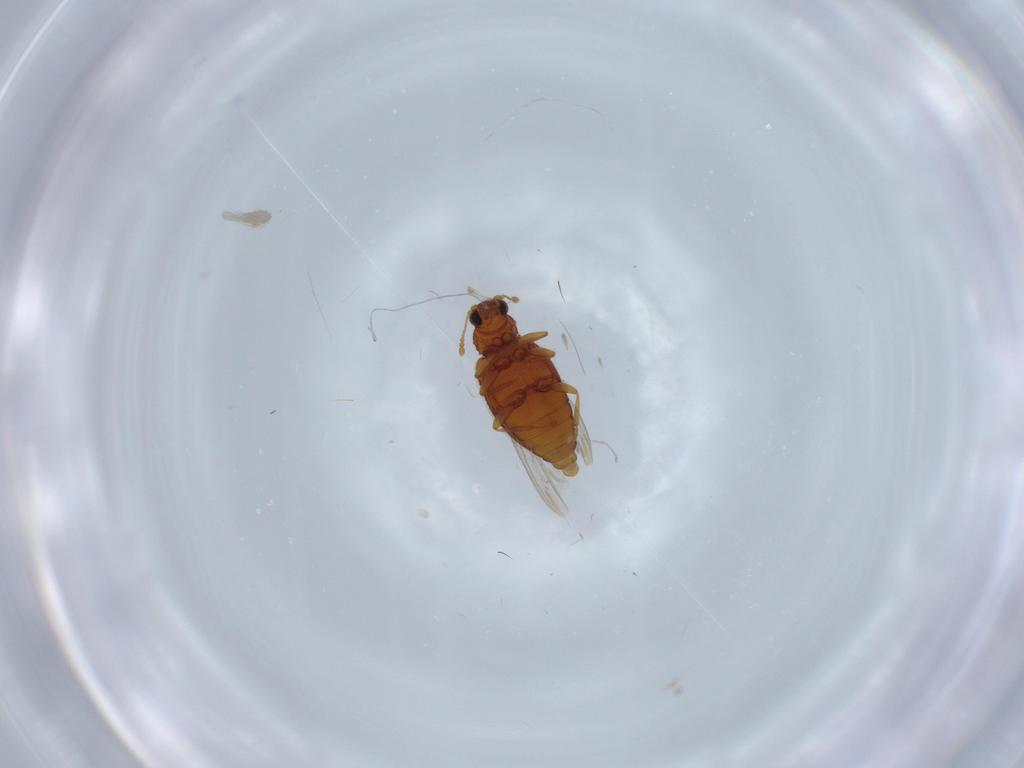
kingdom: Animalia
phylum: Arthropoda
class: Insecta
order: Coleoptera
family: Latridiidae
